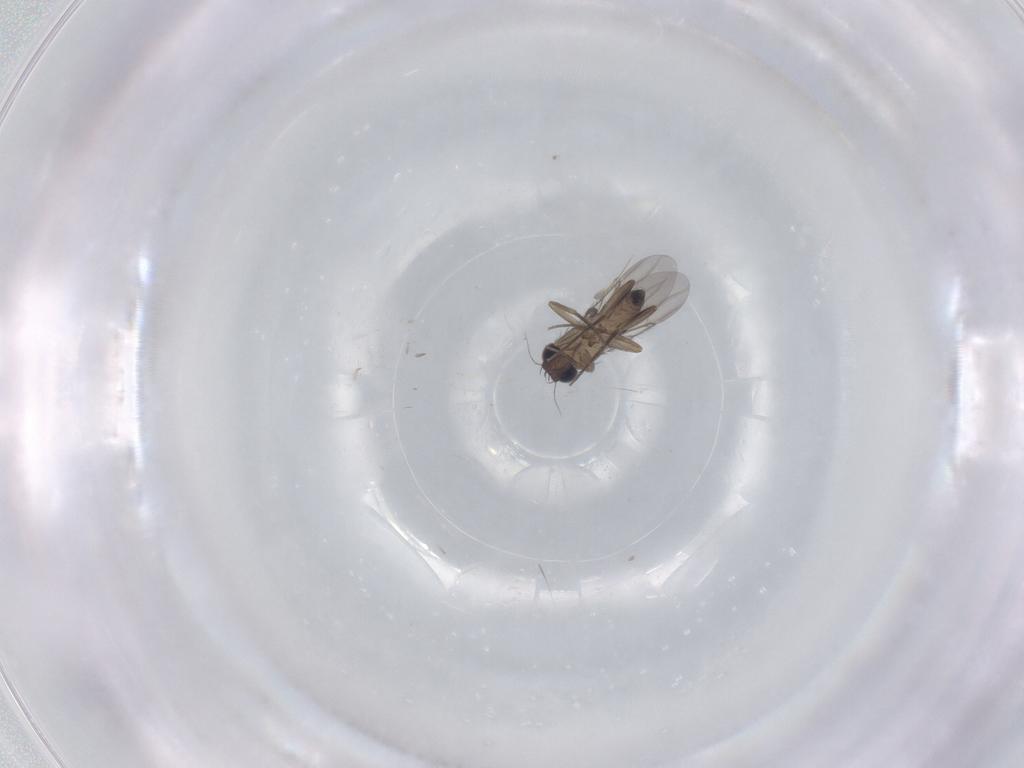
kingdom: Animalia
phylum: Arthropoda
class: Insecta
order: Diptera
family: Phoridae
